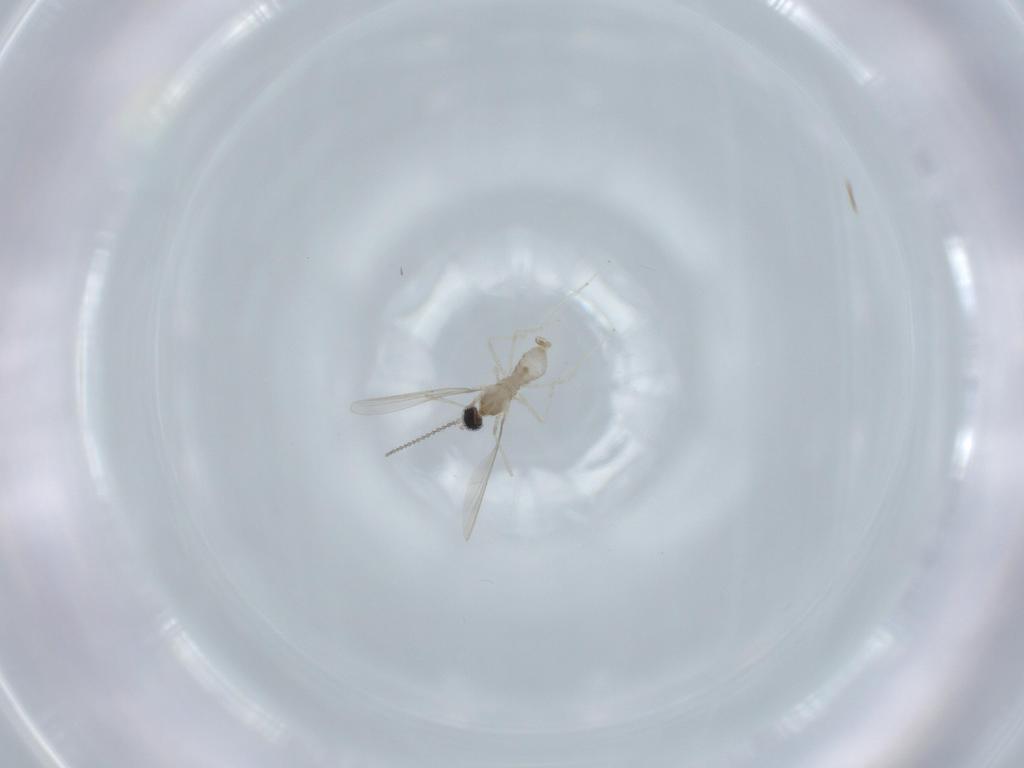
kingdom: Animalia
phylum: Arthropoda
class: Insecta
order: Diptera
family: Cecidomyiidae
